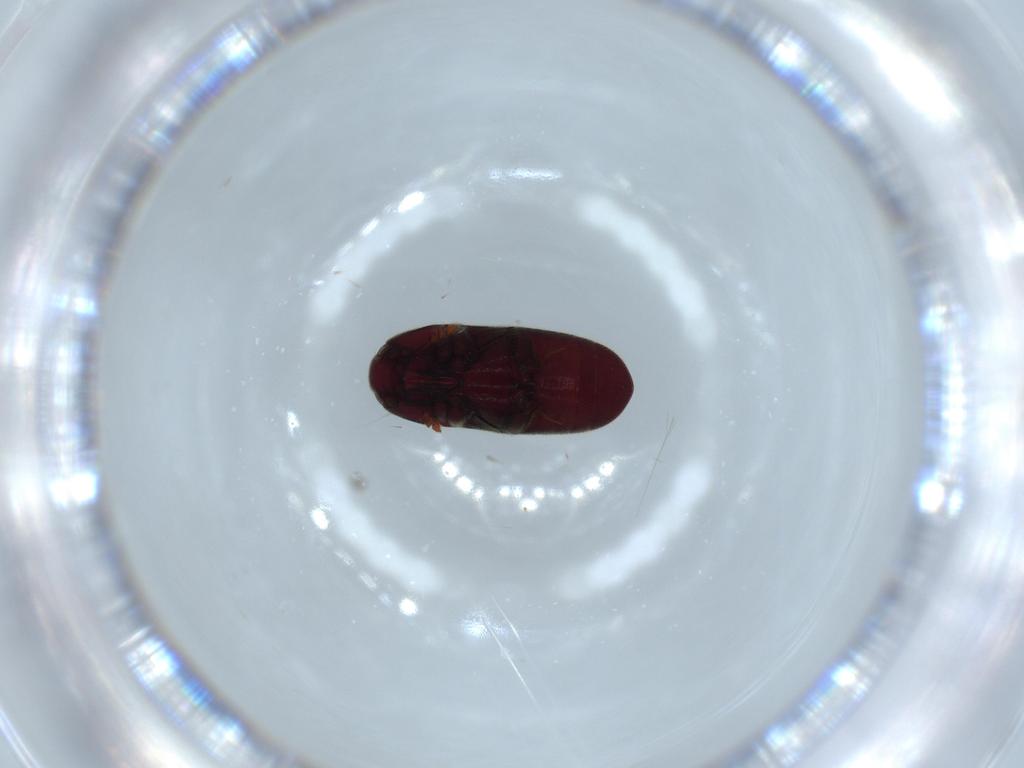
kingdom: Animalia
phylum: Arthropoda
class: Insecta
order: Coleoptera
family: Throscidae
